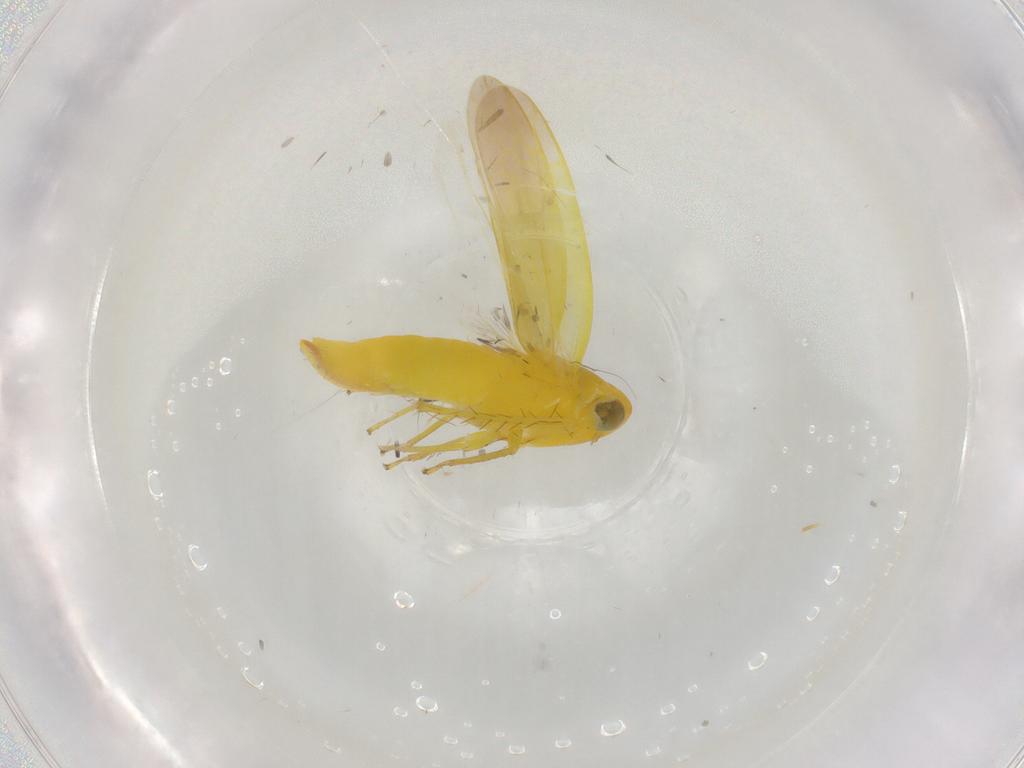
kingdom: Animalia
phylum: Arthropoda
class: Insecta
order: Hemiptera
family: Cicadellidae
